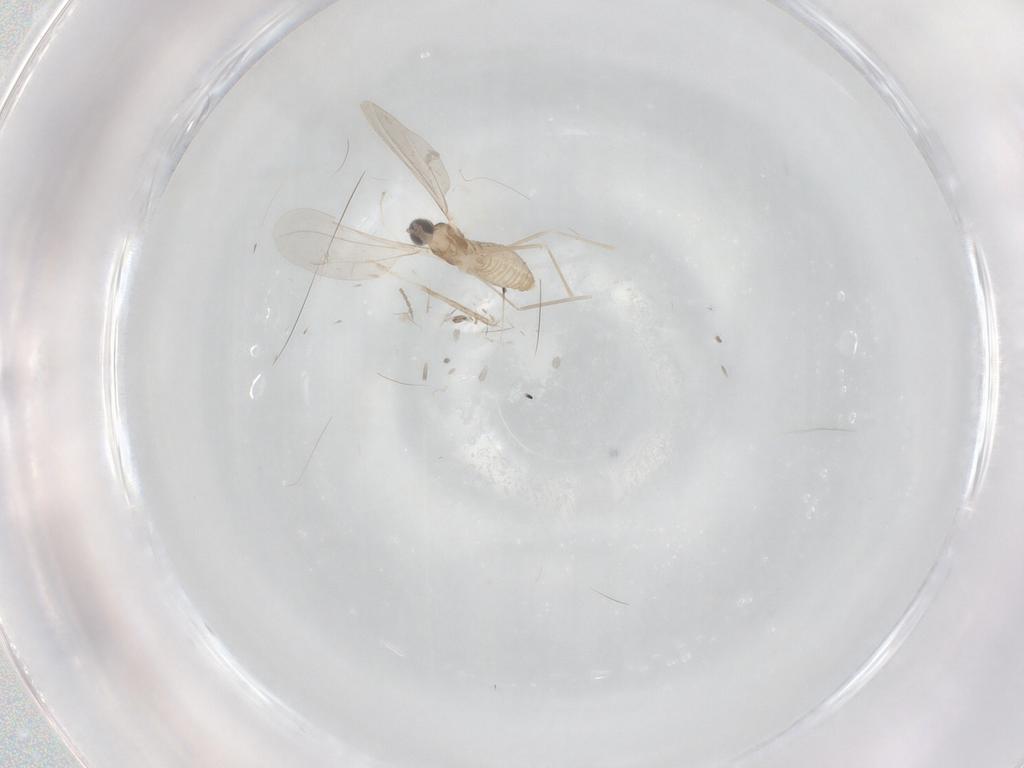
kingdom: Animalia
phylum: Arthropoda
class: Insecta
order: Diptera
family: Cecidomyiidae
